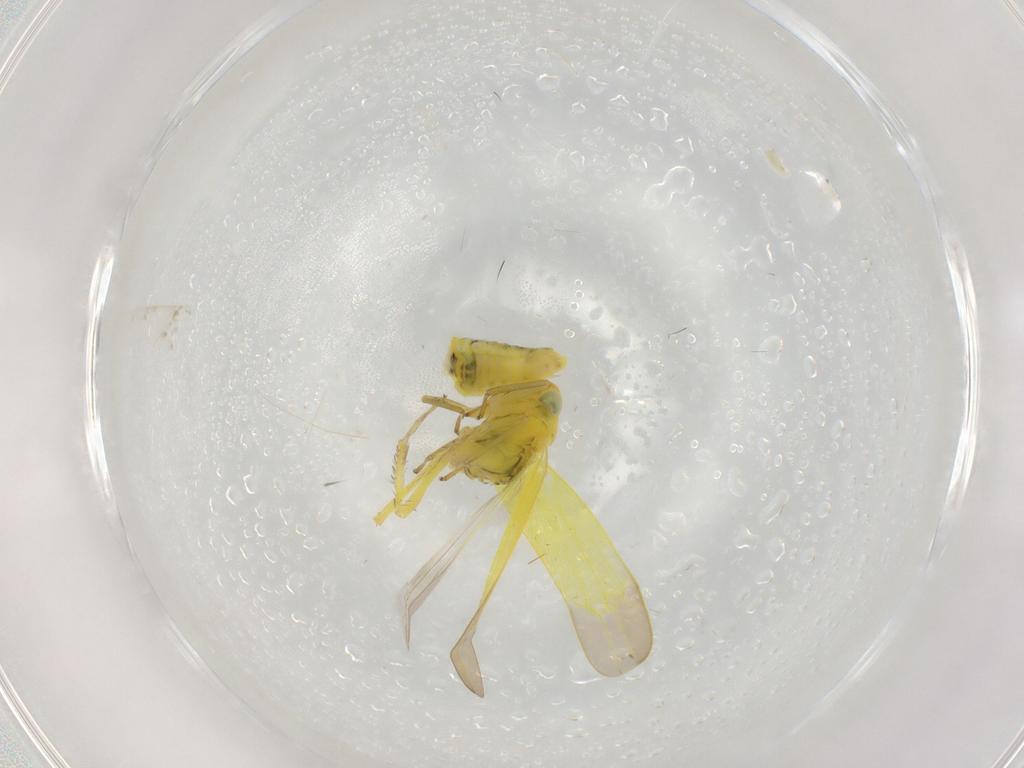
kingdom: Animalia
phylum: Arthropoda
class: Insecta
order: Hemiptera
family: Cicadellidae
